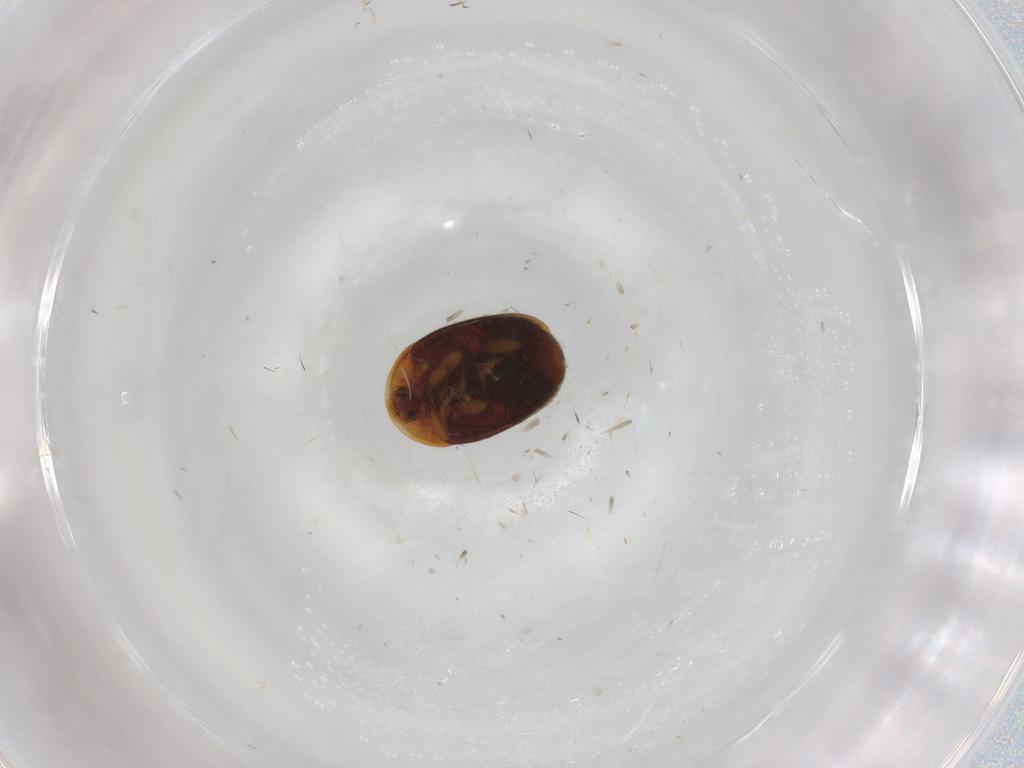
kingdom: Animalia
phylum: Arthropoda
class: Insecta
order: Coleoptera
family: Corylophidae
